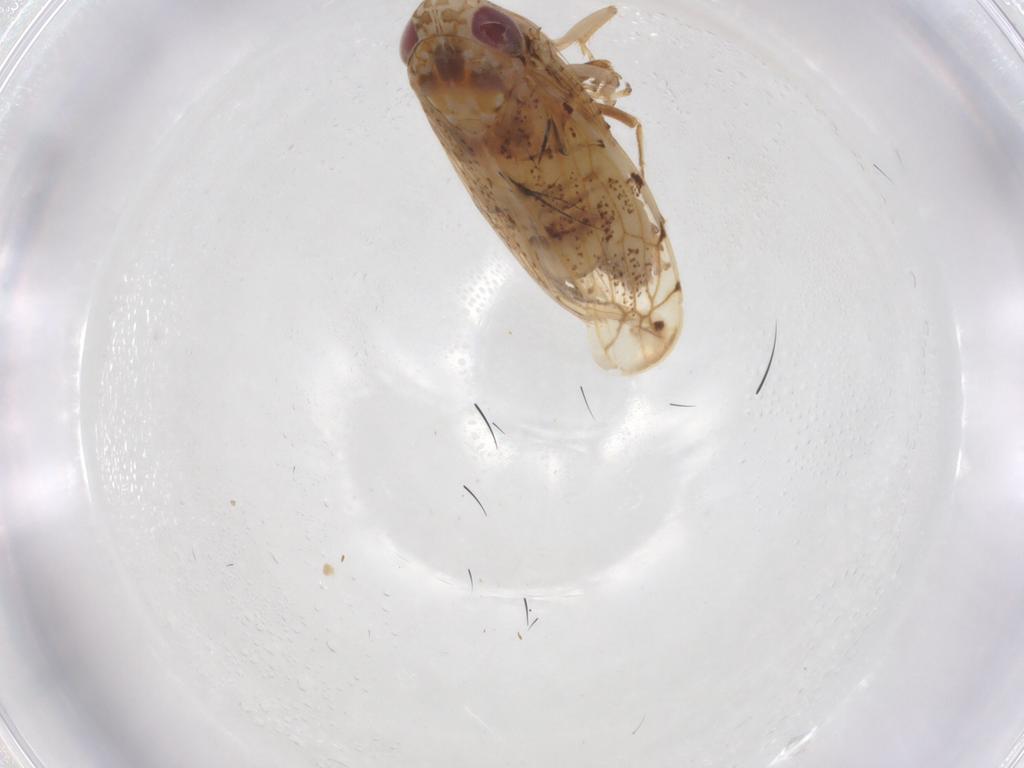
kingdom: Animalia
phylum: Arthropoda
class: Insecta
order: Hemiptera
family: Cicadellidae
